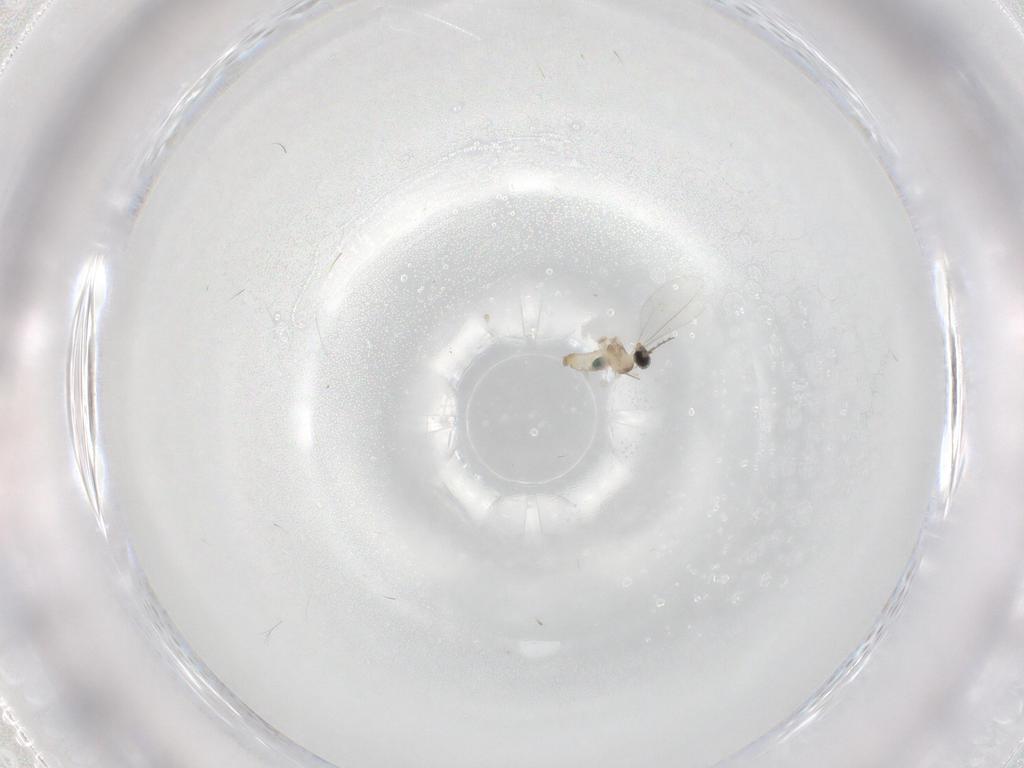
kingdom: Animalia
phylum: Arthropoda
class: Insecta
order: Diptera
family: Cecidomyiidae
